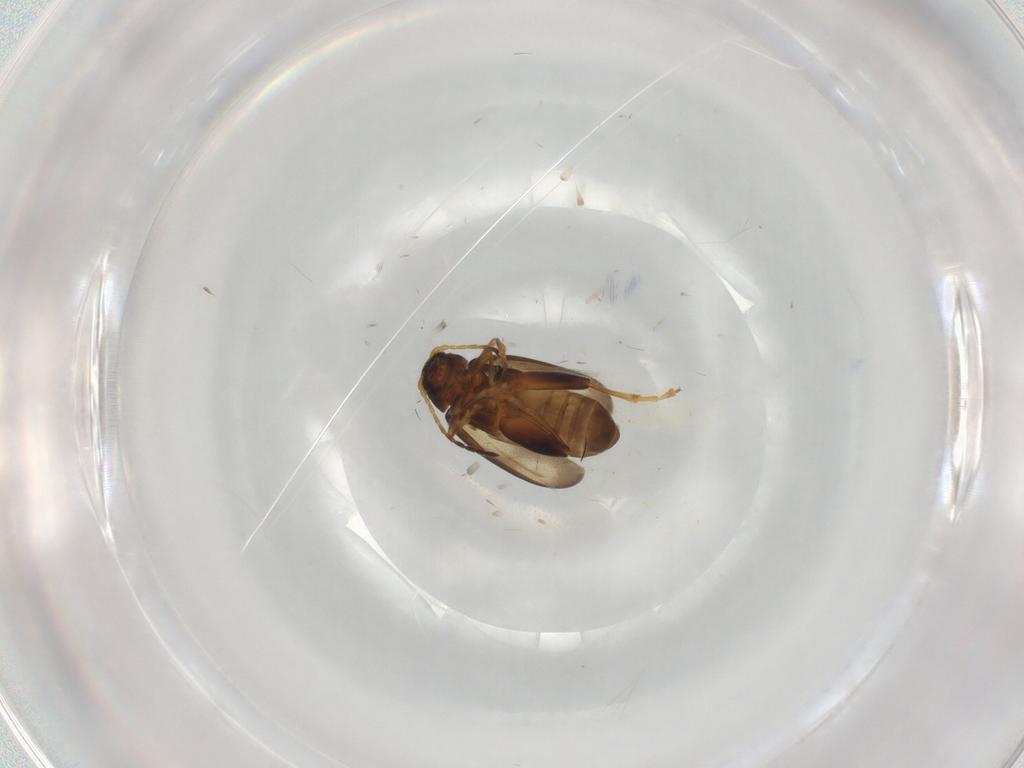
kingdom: Animalia
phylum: Arthropoda
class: Insecta
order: Coleoptera
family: Chrysomelidae
